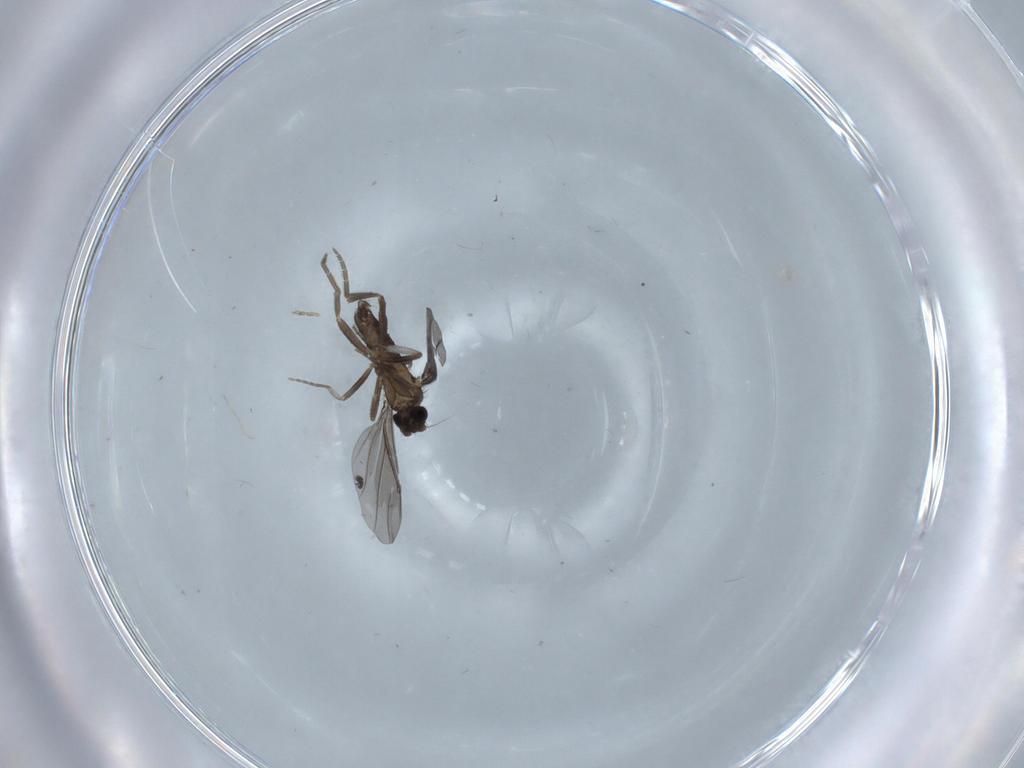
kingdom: Animalia
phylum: Arthropoda
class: Insecta
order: Diptera
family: Phoridae
